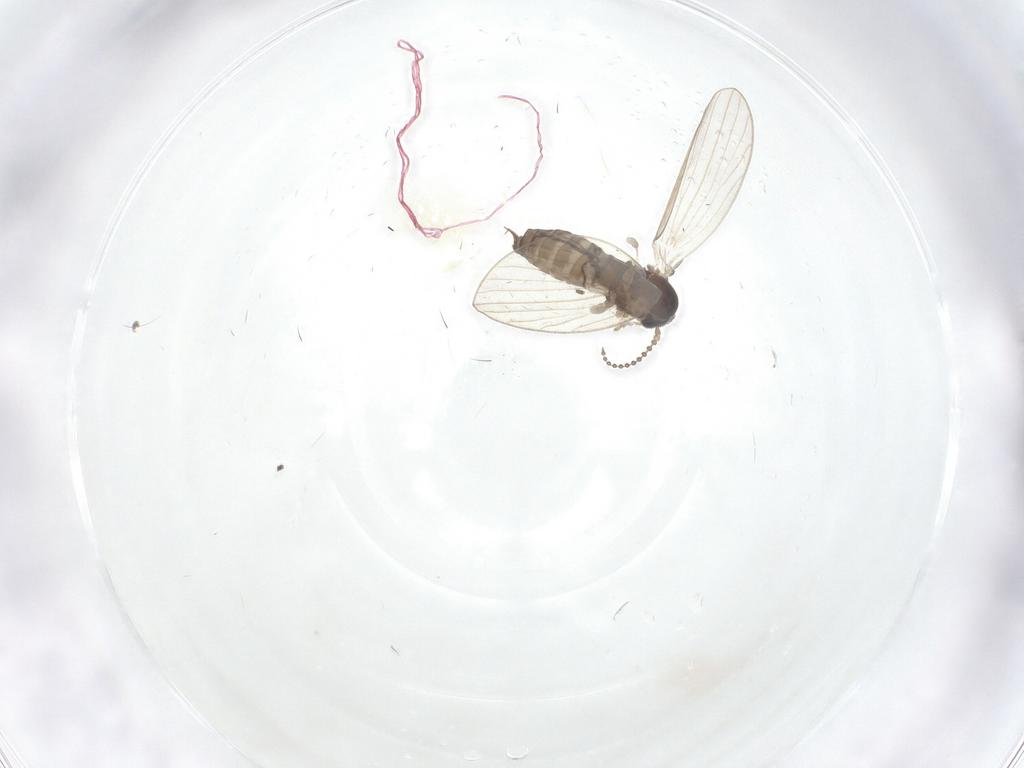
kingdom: Animalia
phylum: Arthropoda
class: Insecta
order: Diptera
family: Psychodidae
